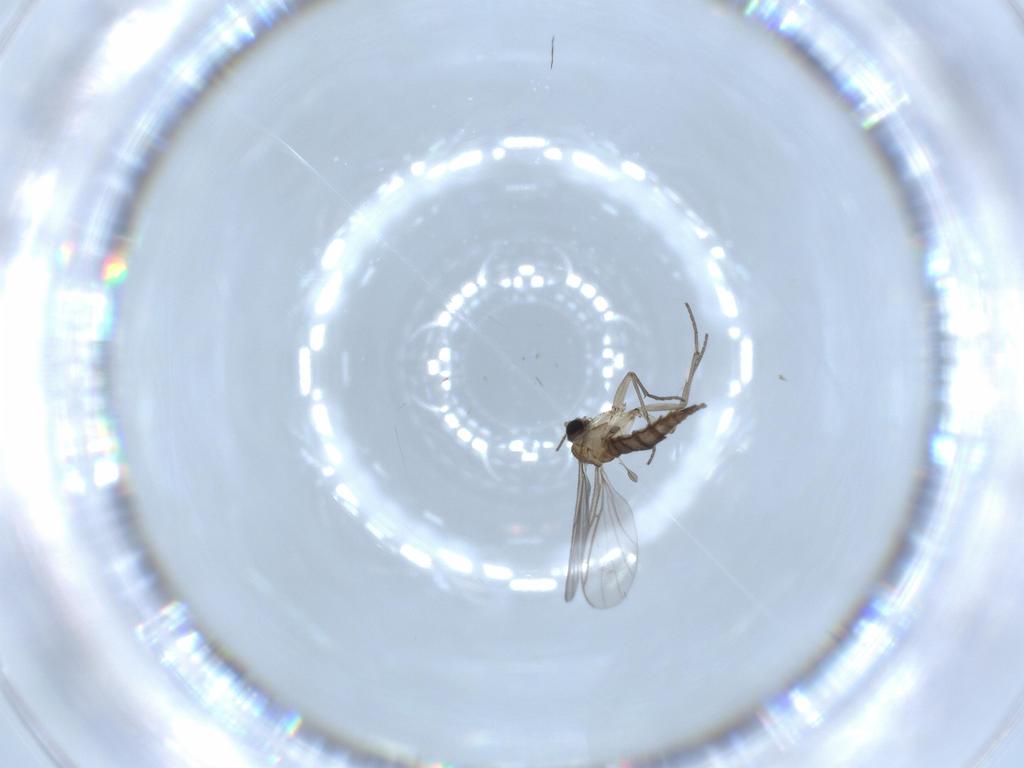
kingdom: Animalia
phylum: Arthropoda
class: Insecta
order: Diptera
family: Sciaridae
